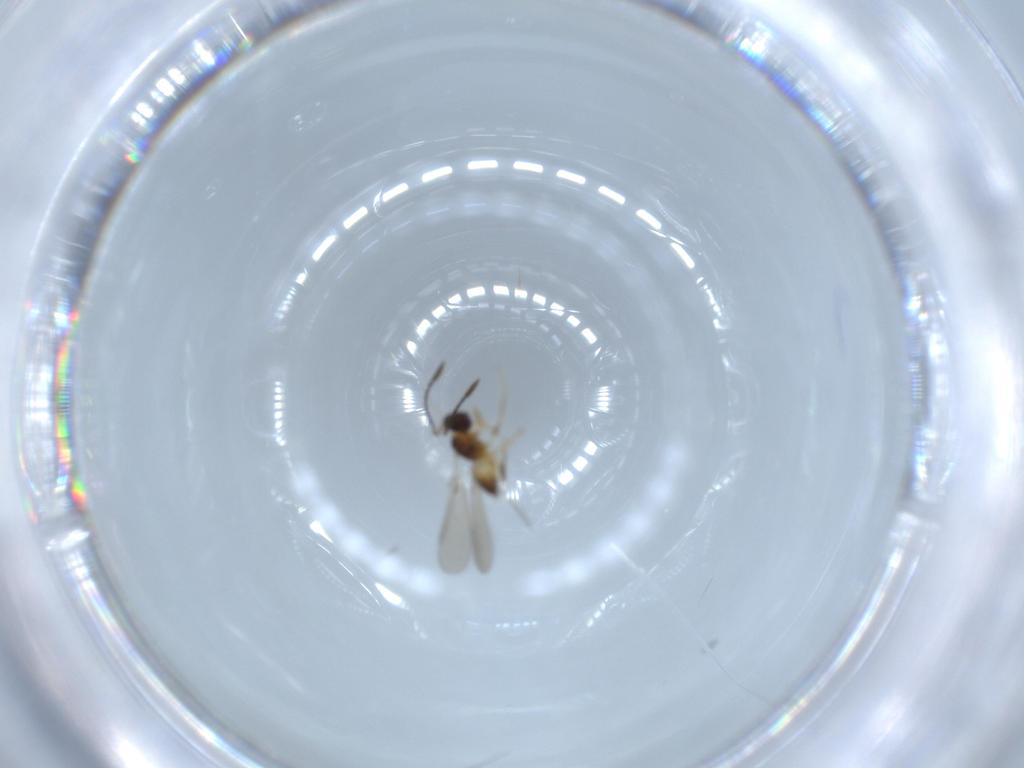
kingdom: Animalia
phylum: Arthropoda
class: Insecta
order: Hymenoptera
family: Mymaridae
